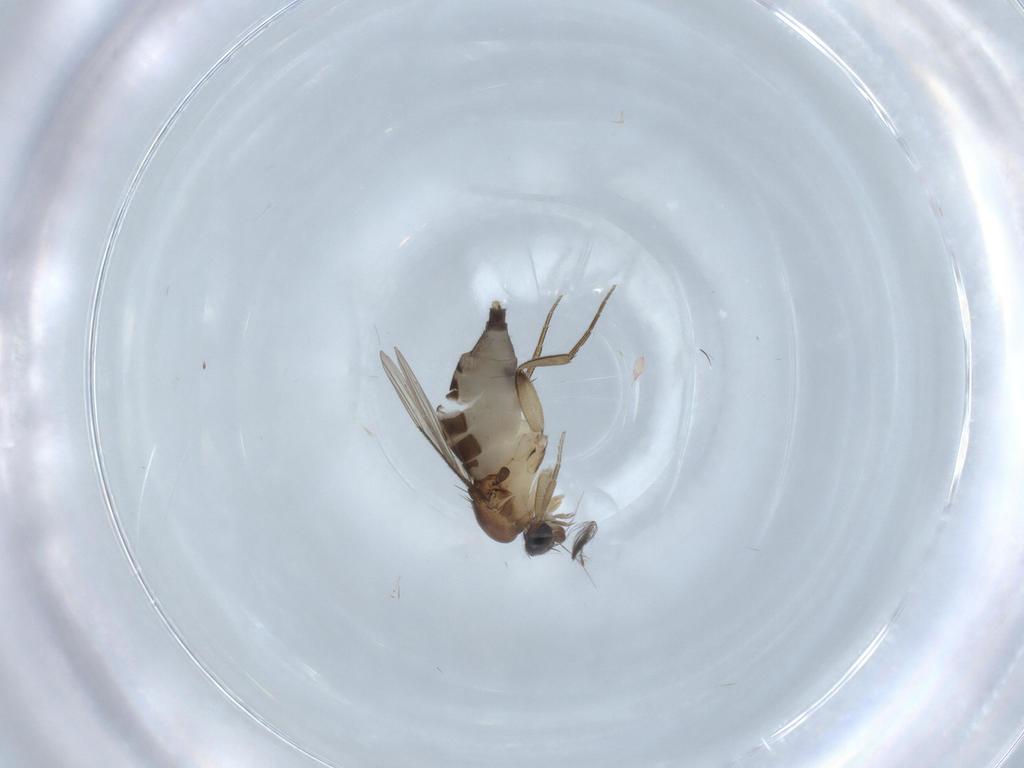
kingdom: Animalia
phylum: Arthropoda
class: Insecta
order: Diptera
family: Phoridae
